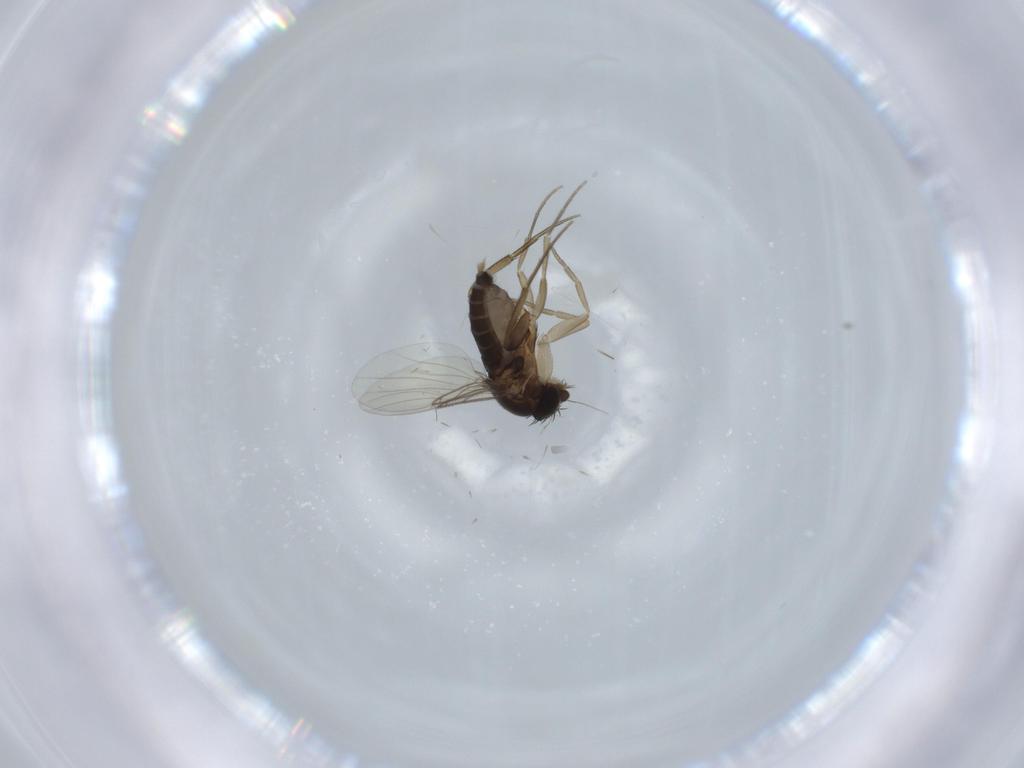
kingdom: Animalia
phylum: Arthropoda
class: Insecta
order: Diptera
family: Phoridae
